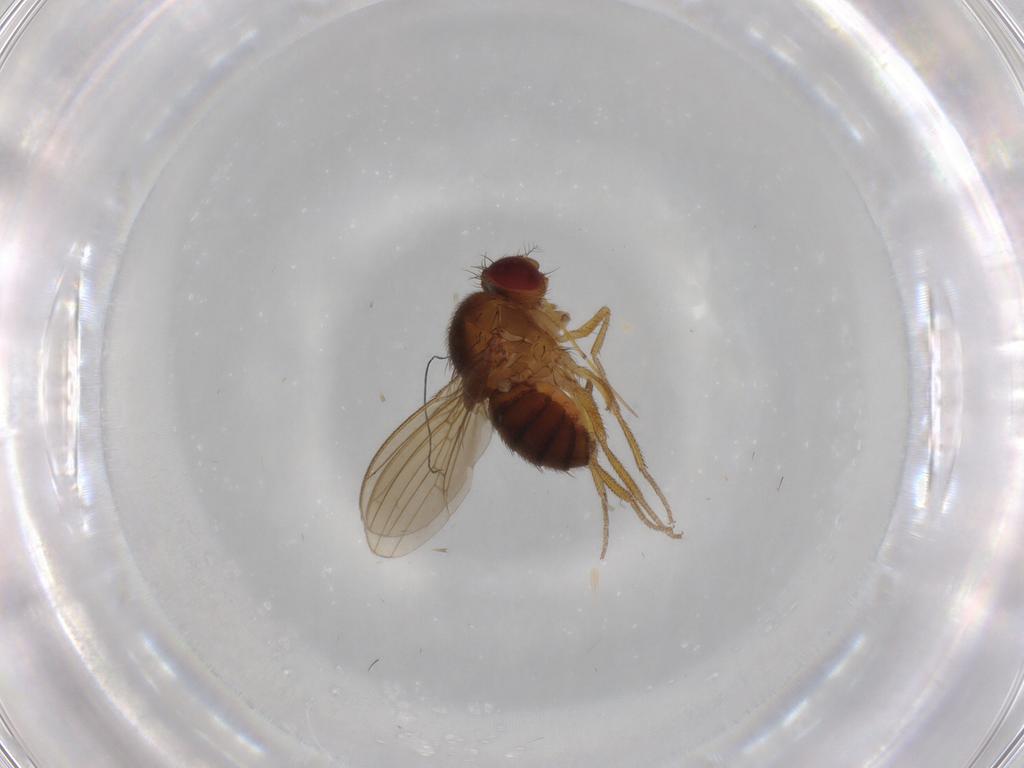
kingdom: Animalia
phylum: Arthropoda
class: Insecta
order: Diptera
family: Drosophilidae
